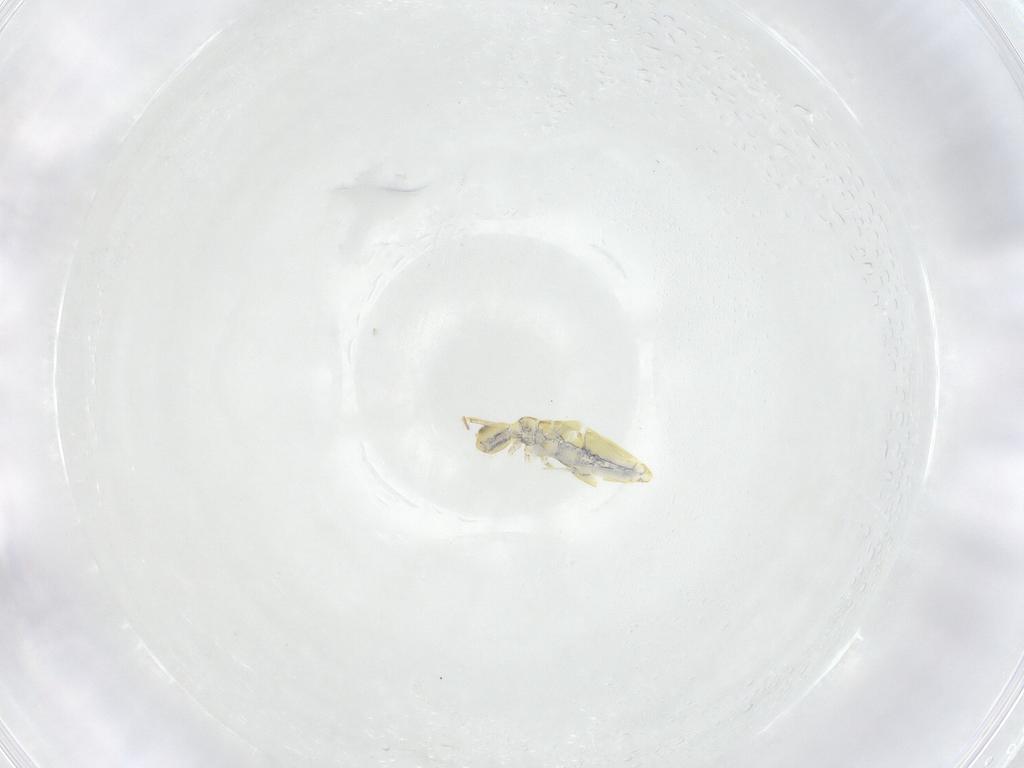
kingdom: Animalia
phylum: Arthropoda
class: Collembola
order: Entomobryomorpha
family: Entomobryidae
